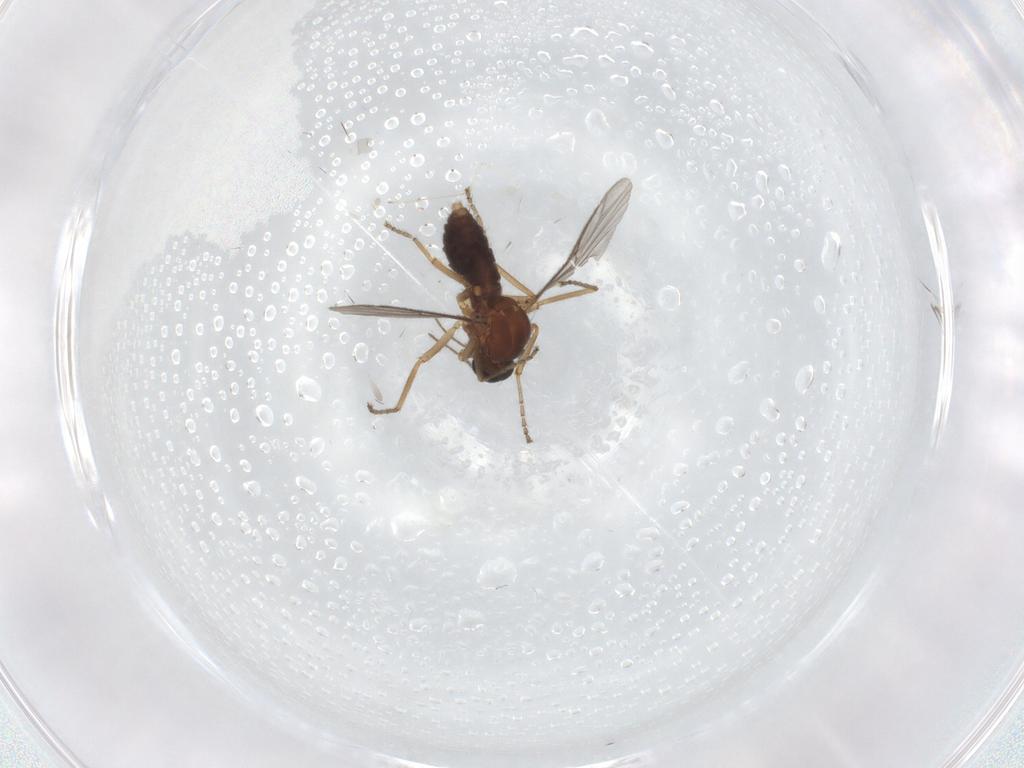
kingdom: Animalia
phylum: Arthropoda
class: Insecta
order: Diptera
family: Ceratopogonidae
